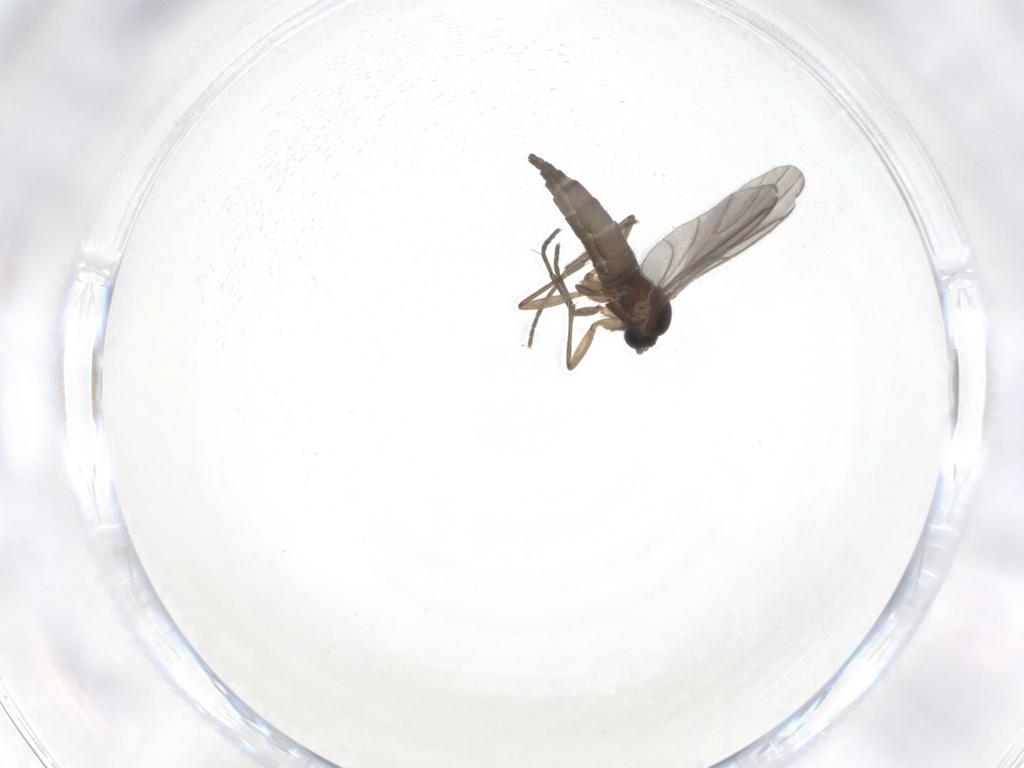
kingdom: Animalia
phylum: Arthropoda
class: Insecta
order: Diptera
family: Sciaridae
